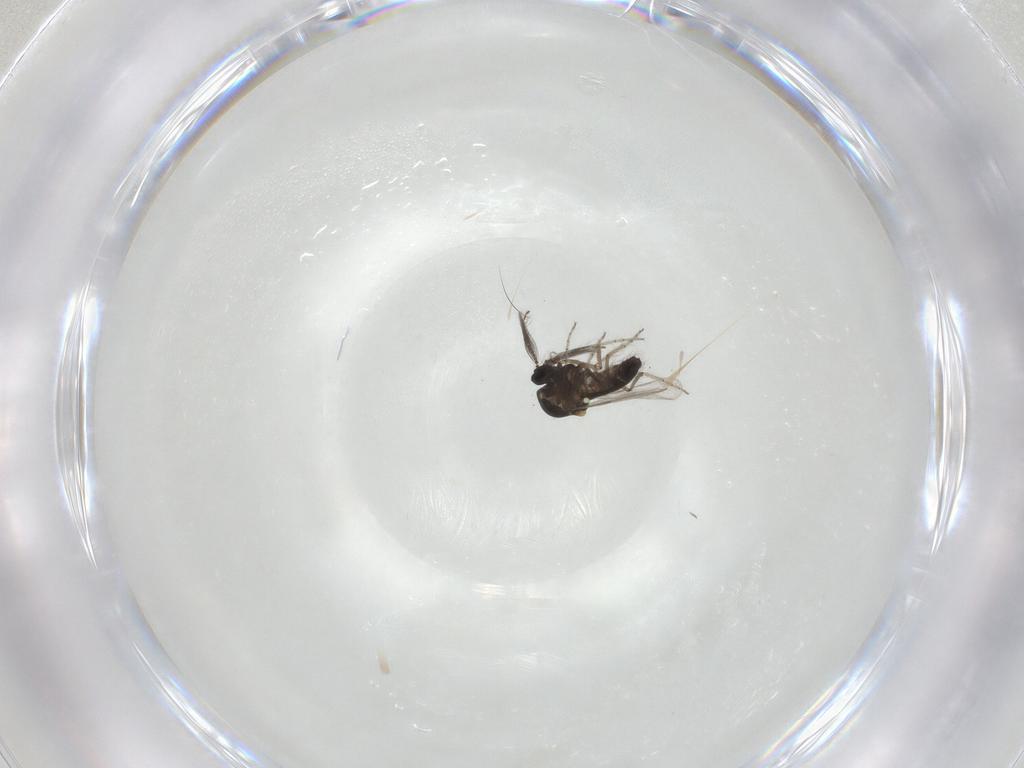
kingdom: Animalia
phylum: Arthropoda
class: Insecta
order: Diptera
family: Ceratopogonidae
